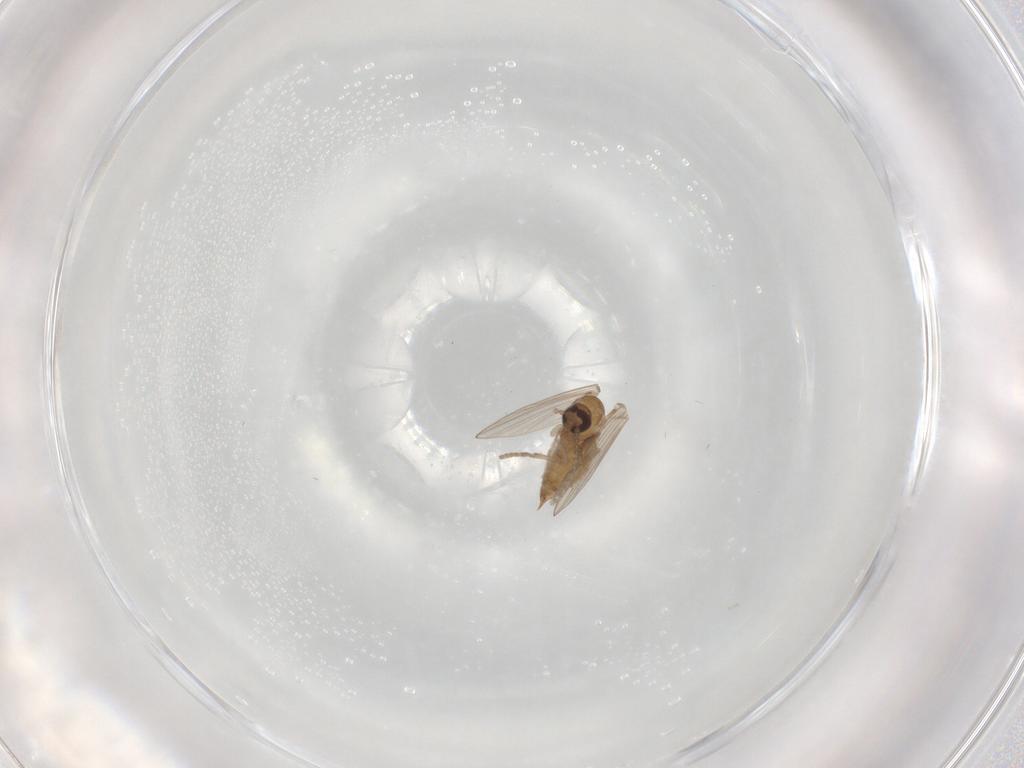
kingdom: Animalia
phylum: Arthropoda
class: Insecta
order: Diptera
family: Psychodidae
